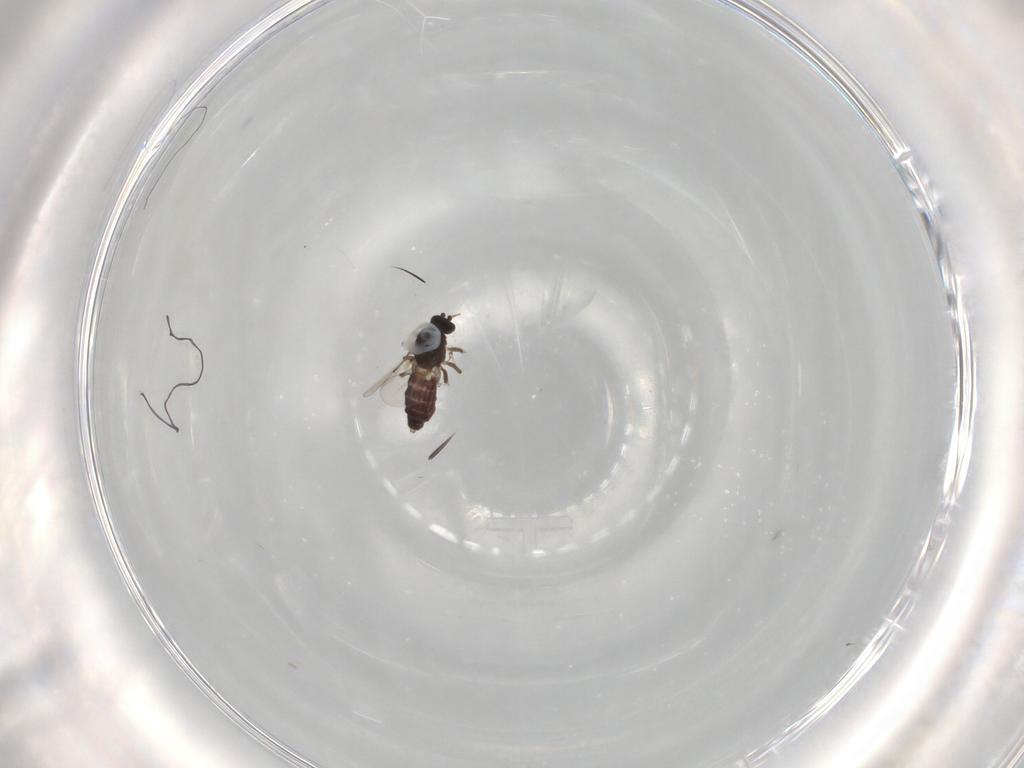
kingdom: Animalia
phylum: Arthropoda
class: Insecta
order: Diptera
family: Ceratopogonidae
